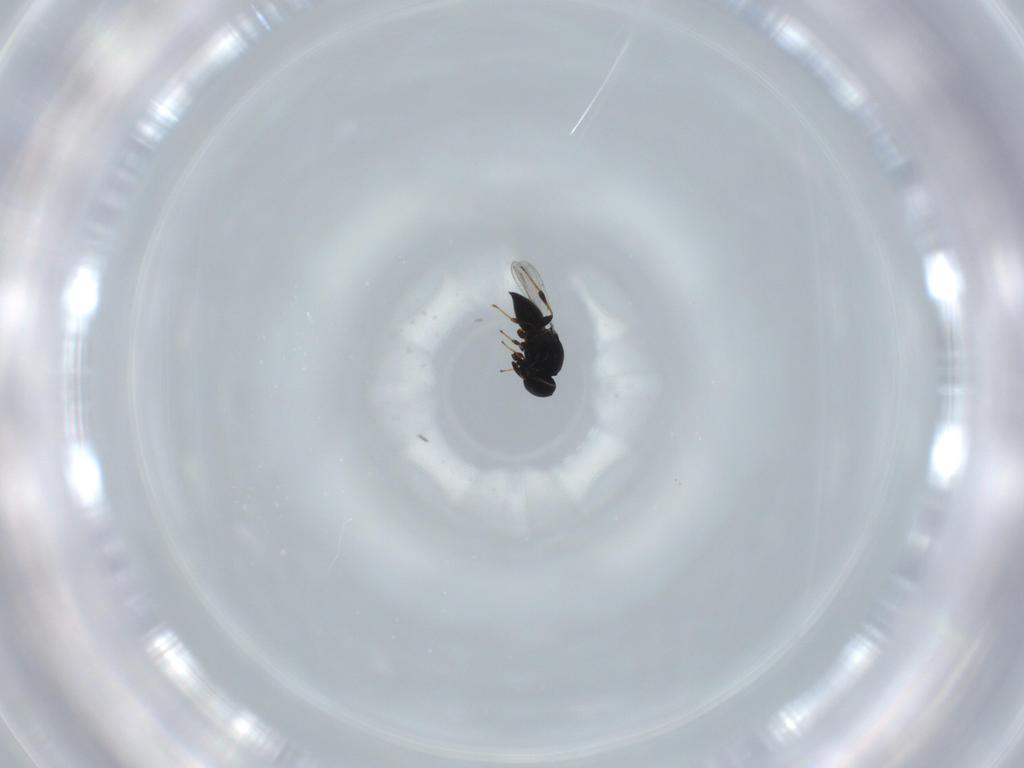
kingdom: Animalia
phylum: Arthropoda
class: Insecta
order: Hymenoptera
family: Platygastridae
